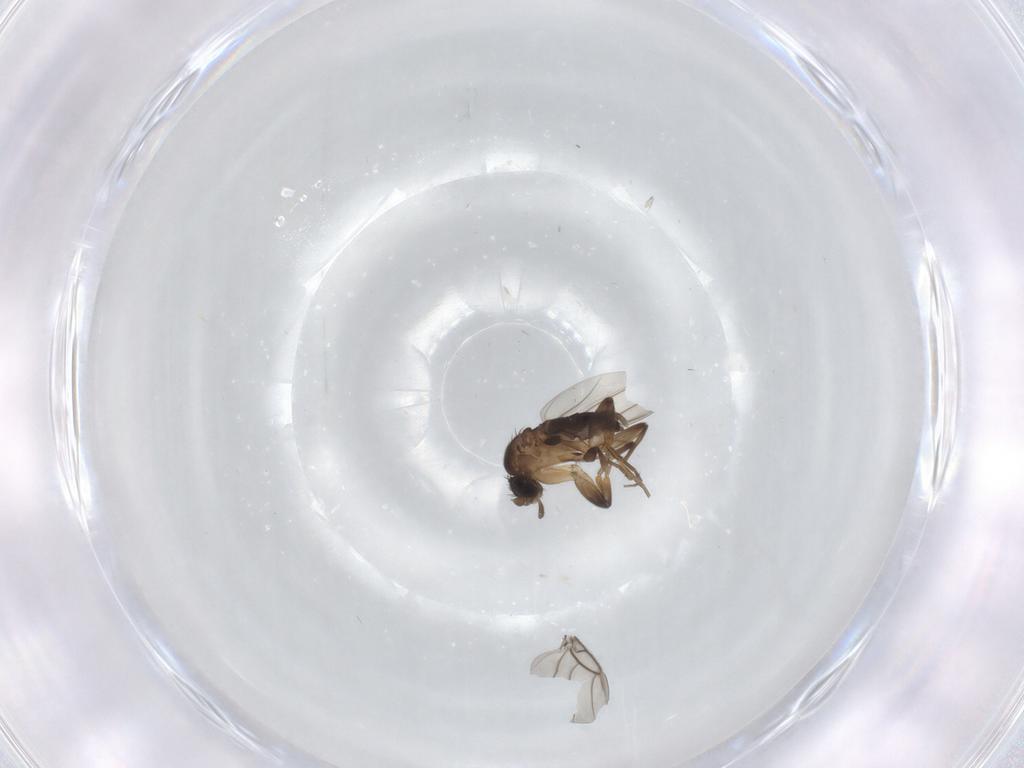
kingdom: Animalia
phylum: Arthropoda
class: Insecta
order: Diptera
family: Phoridae
